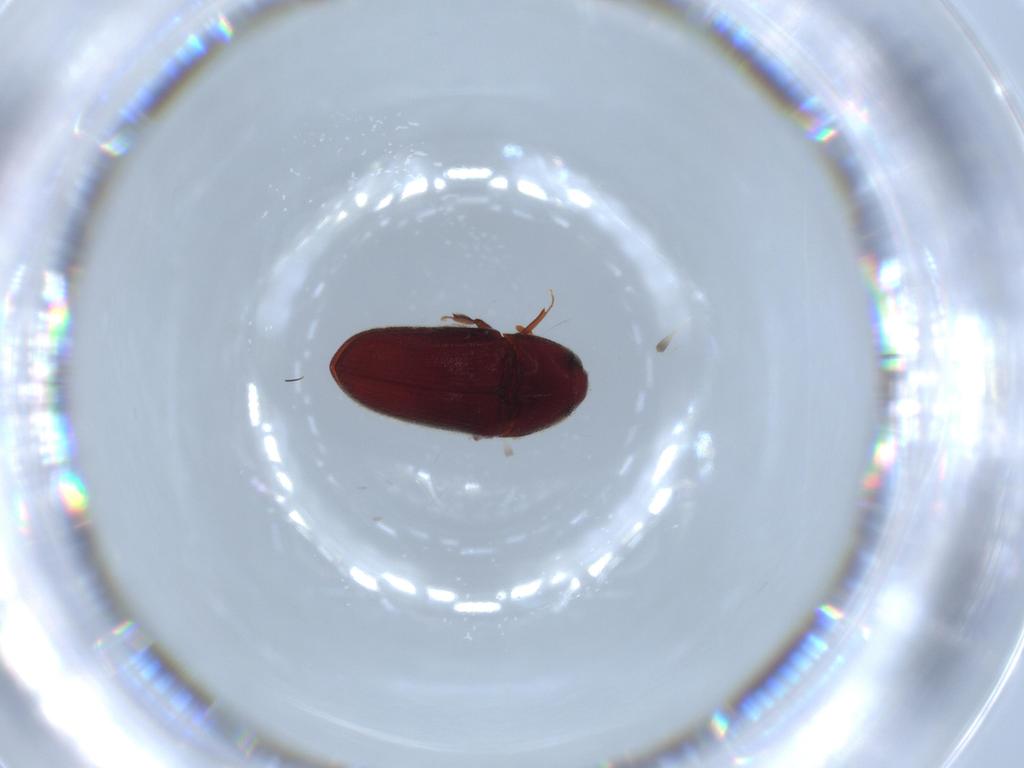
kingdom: Animalia
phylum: Arthropoda
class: Insecta
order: Coleoptera
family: Throscidae
